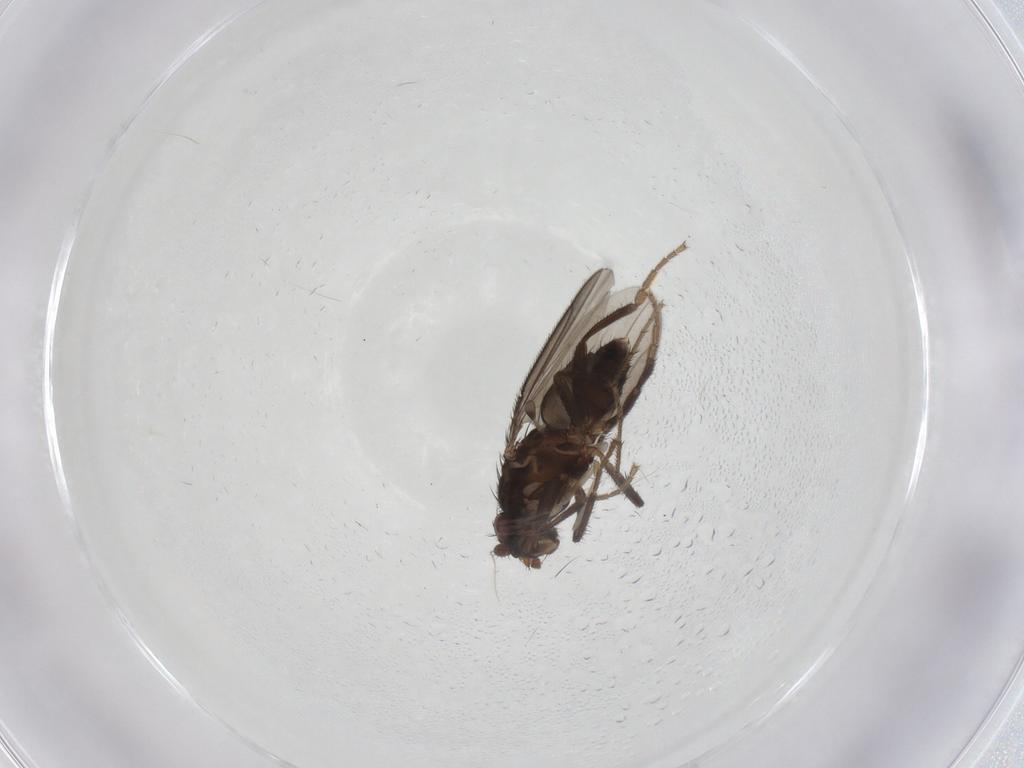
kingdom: Animalia
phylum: Arthropoda
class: Insecta
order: Diptera
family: Sphaeroceridae
